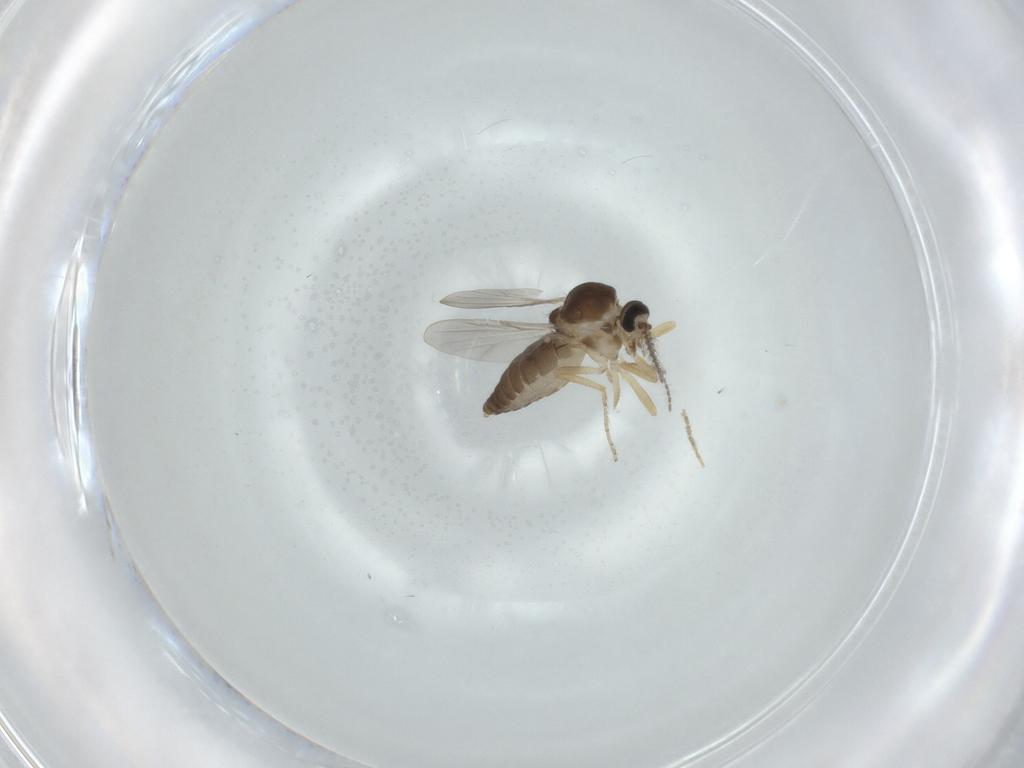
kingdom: Animalia
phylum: Arthropoda
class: Insecta
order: Diptera
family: Ceratopogonidae
